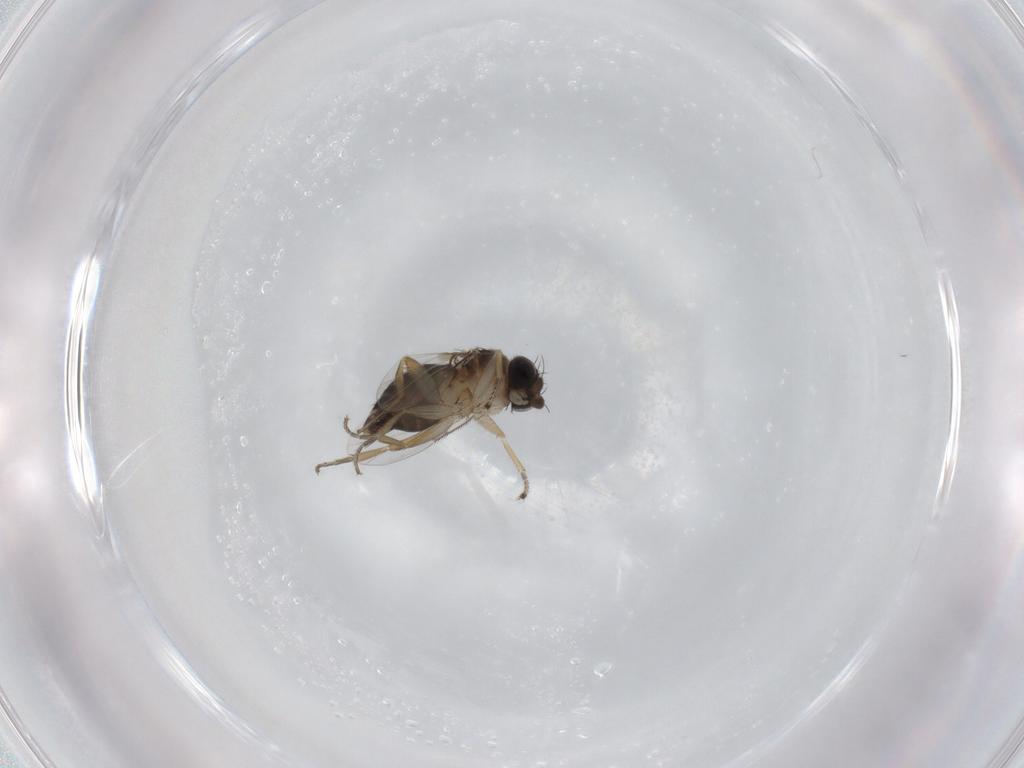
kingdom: Animalia
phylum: Arthropoda
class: Insecta
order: Diptera
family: Phoridae
